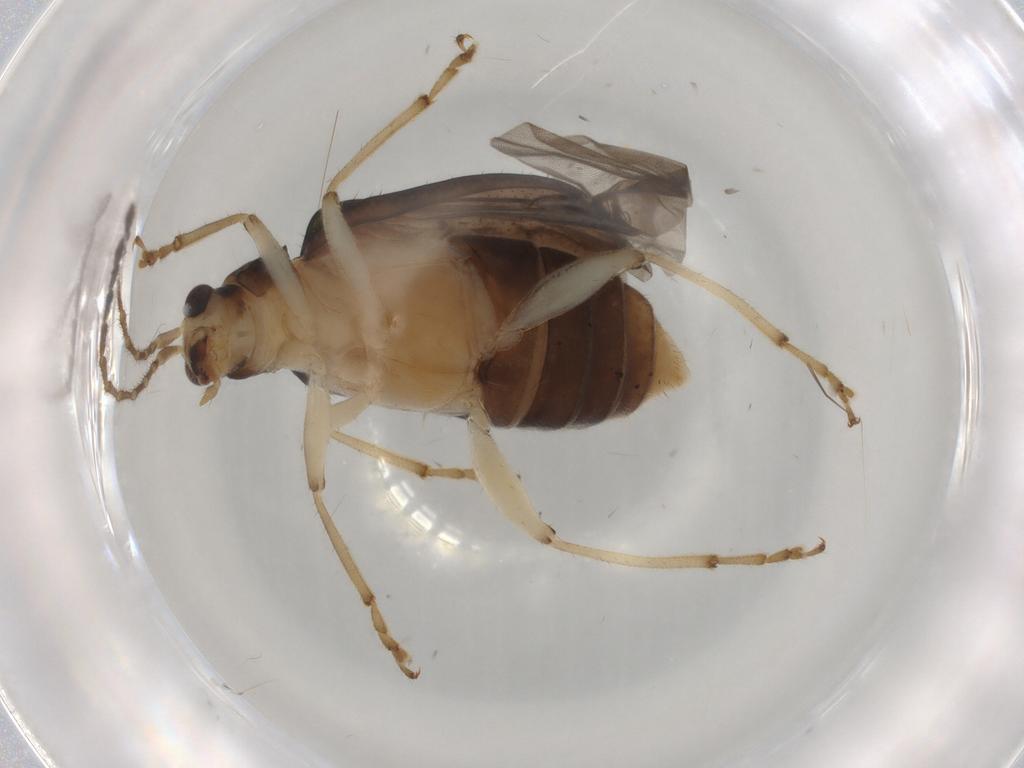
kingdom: Animalia
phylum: Arthropoda
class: Insecta
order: Coleoptera
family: Chrysomelidae
